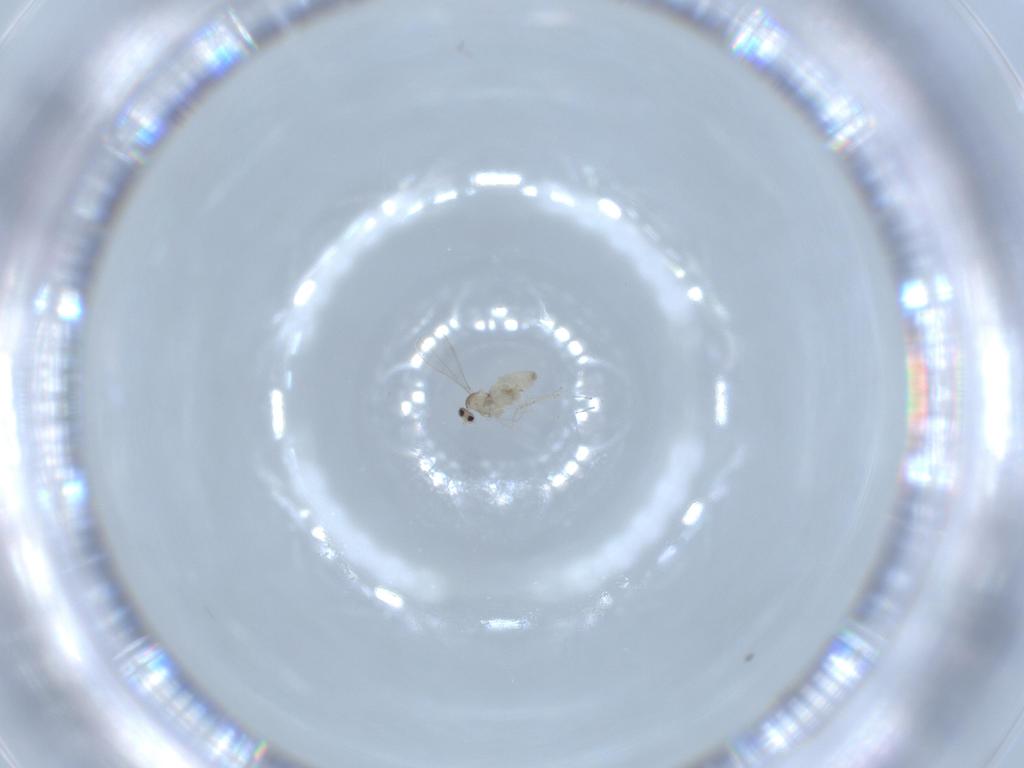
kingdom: Animalia
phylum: Arthropoda
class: Insecta
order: Diptera
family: Cecidomyiidae
